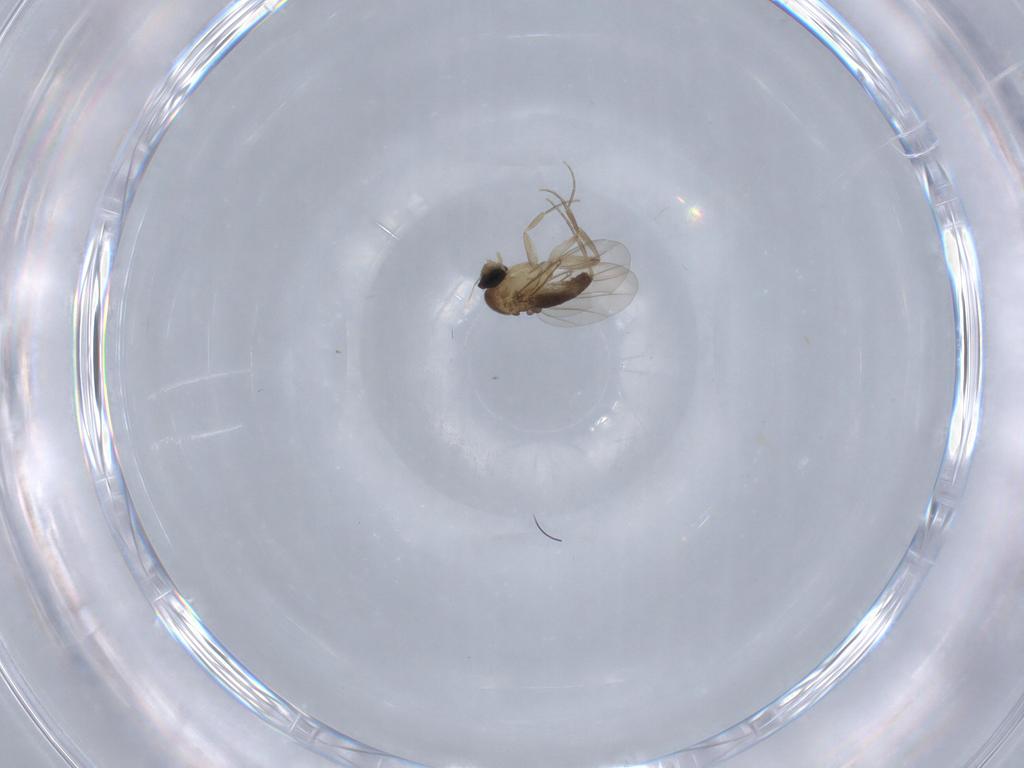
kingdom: Animalia
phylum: Arthropoda
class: Insecta
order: Diptera
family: Phoridae
